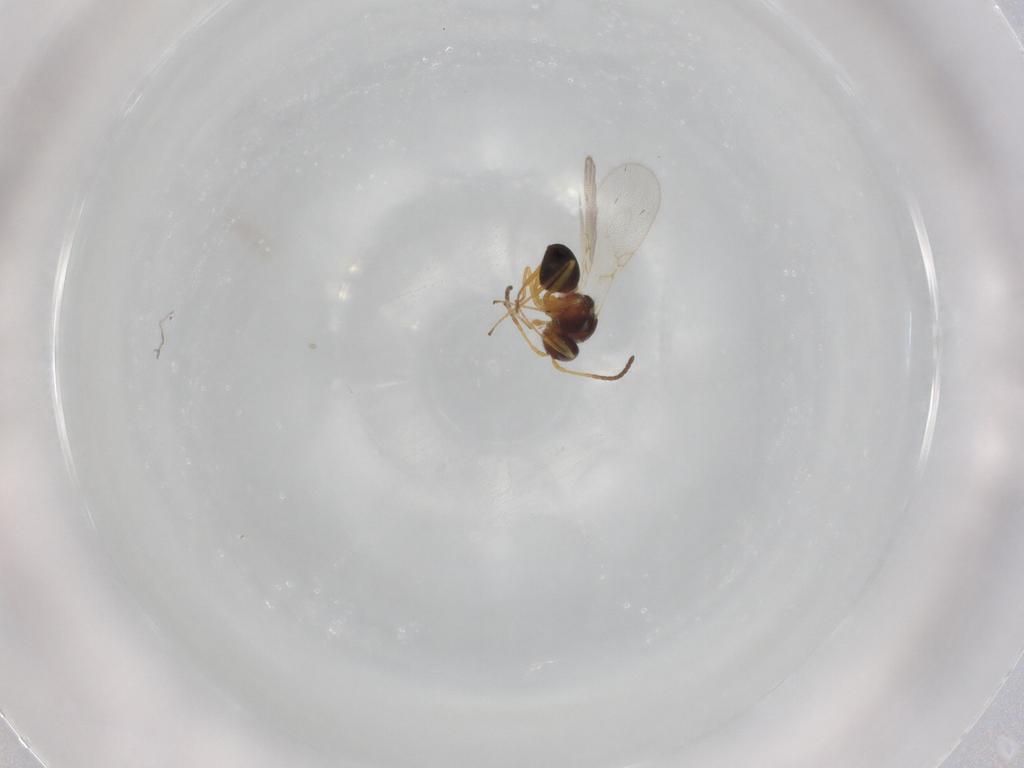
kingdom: Animalia
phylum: Arthropoda
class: Insecta
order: Hymenoptera
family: Figitidae
